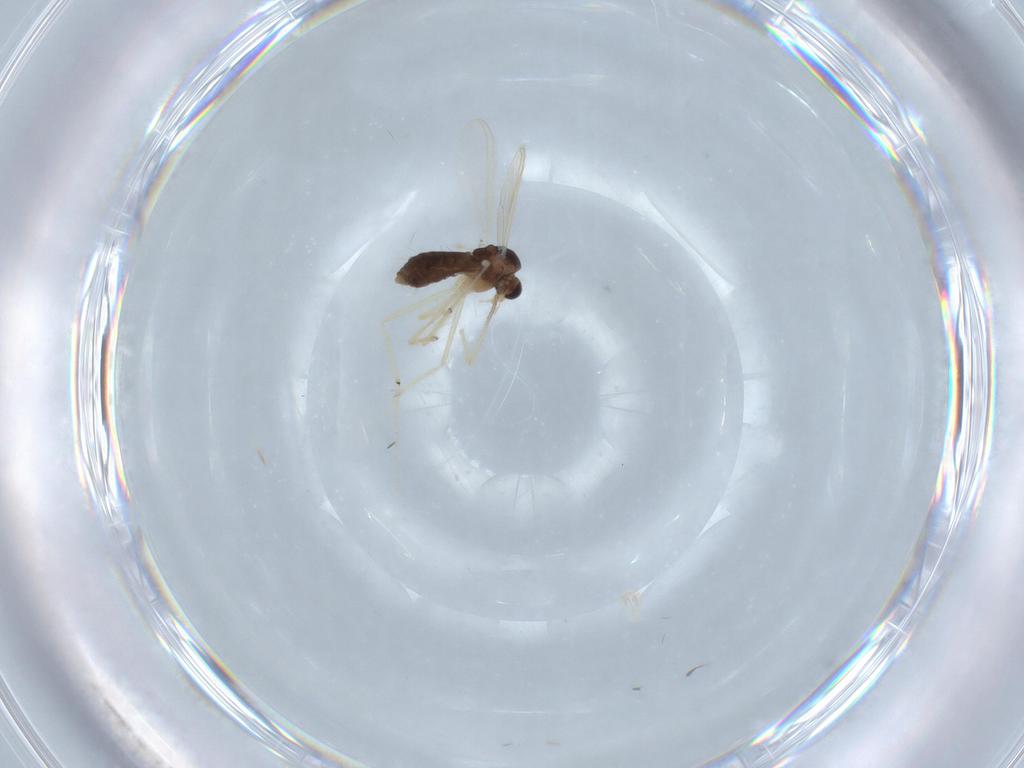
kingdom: Animalia
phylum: Arthropoda
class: Insecta
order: Diptera
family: Chironomidae
